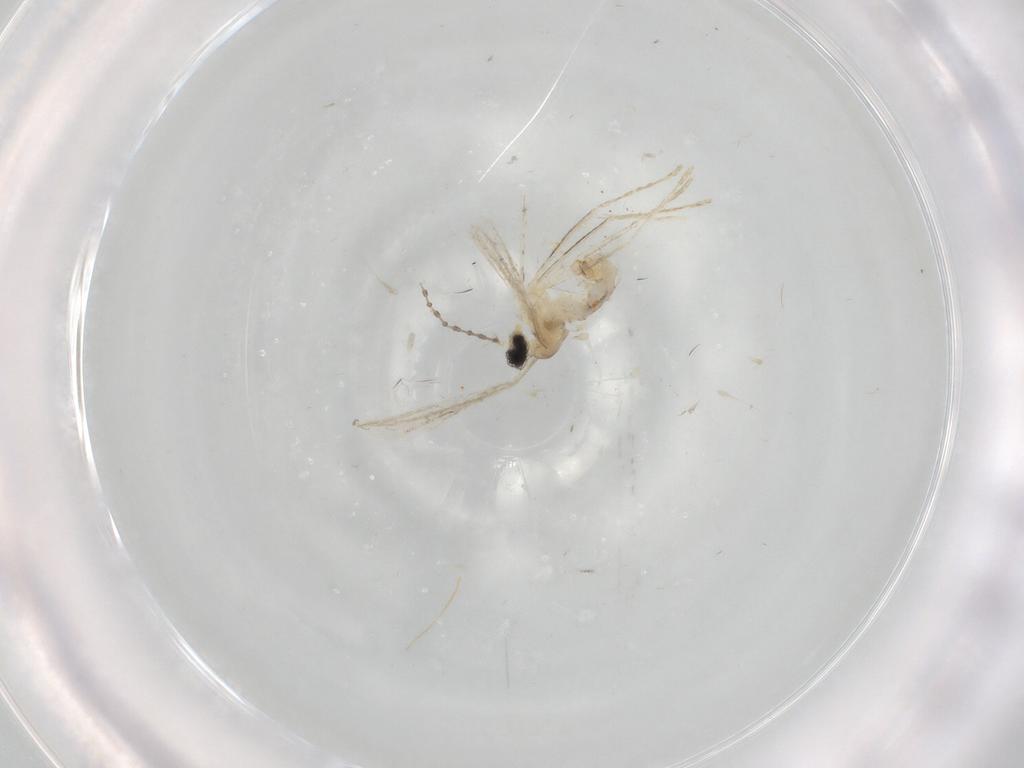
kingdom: Animalia
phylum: Arthropoda
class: Insecta
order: Diptera
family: Cecidomyiidae
